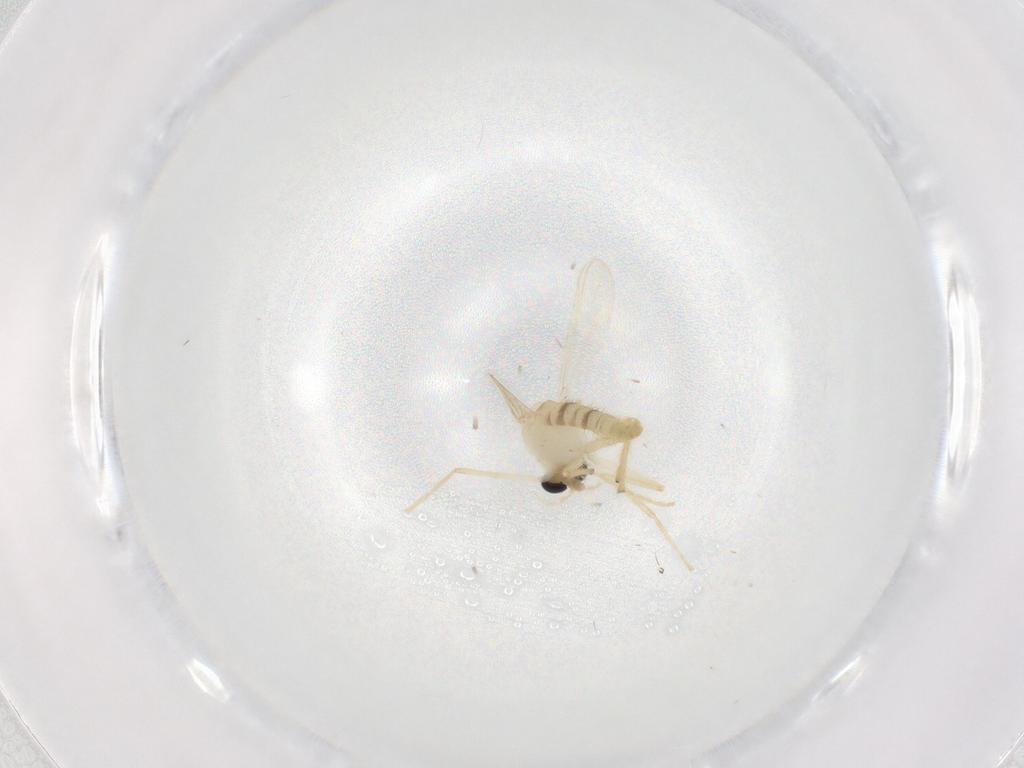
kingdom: Animalia
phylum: Arthropoda
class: Insecta
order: Diptera
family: Chironomidae
